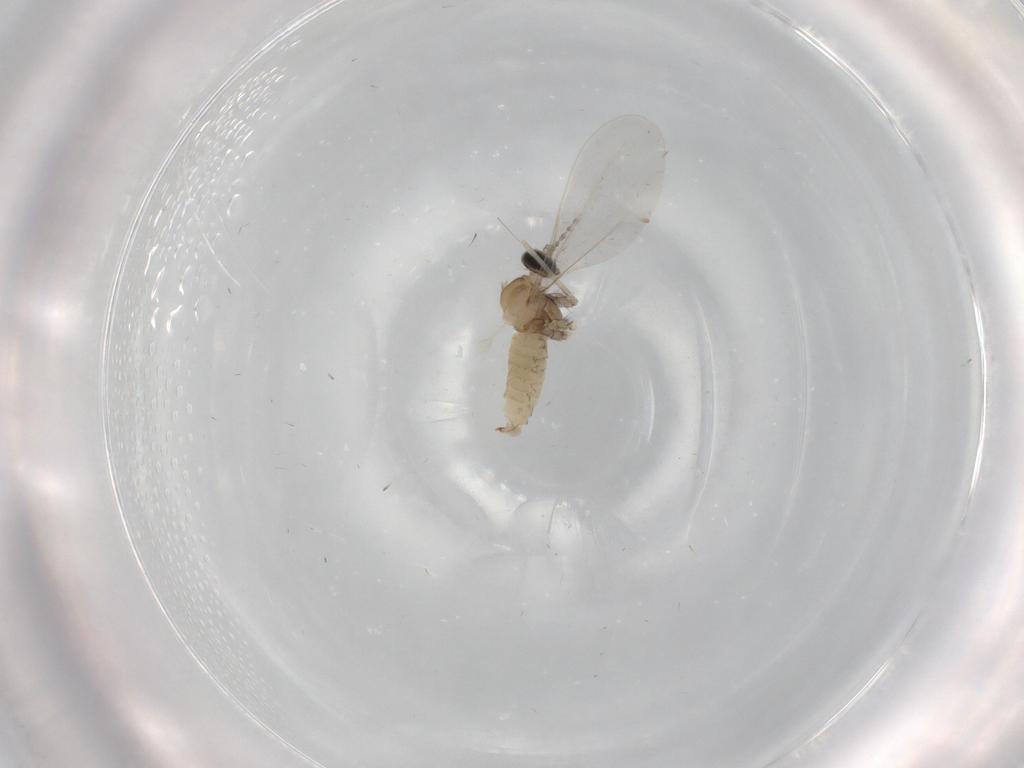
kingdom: Animalia
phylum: Arthropoda
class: Insecta
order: Diptera
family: Cecidomyiidae
